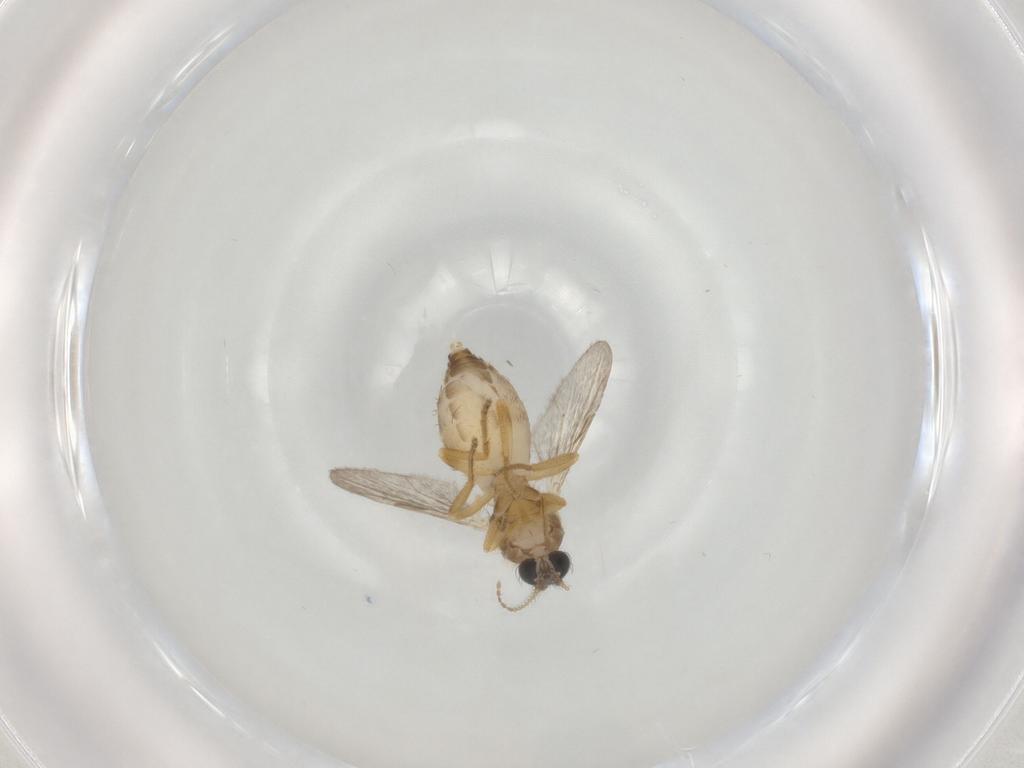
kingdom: Animalia
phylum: Arthropoda
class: Insecta
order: Diptera
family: Ceratopogonidae
